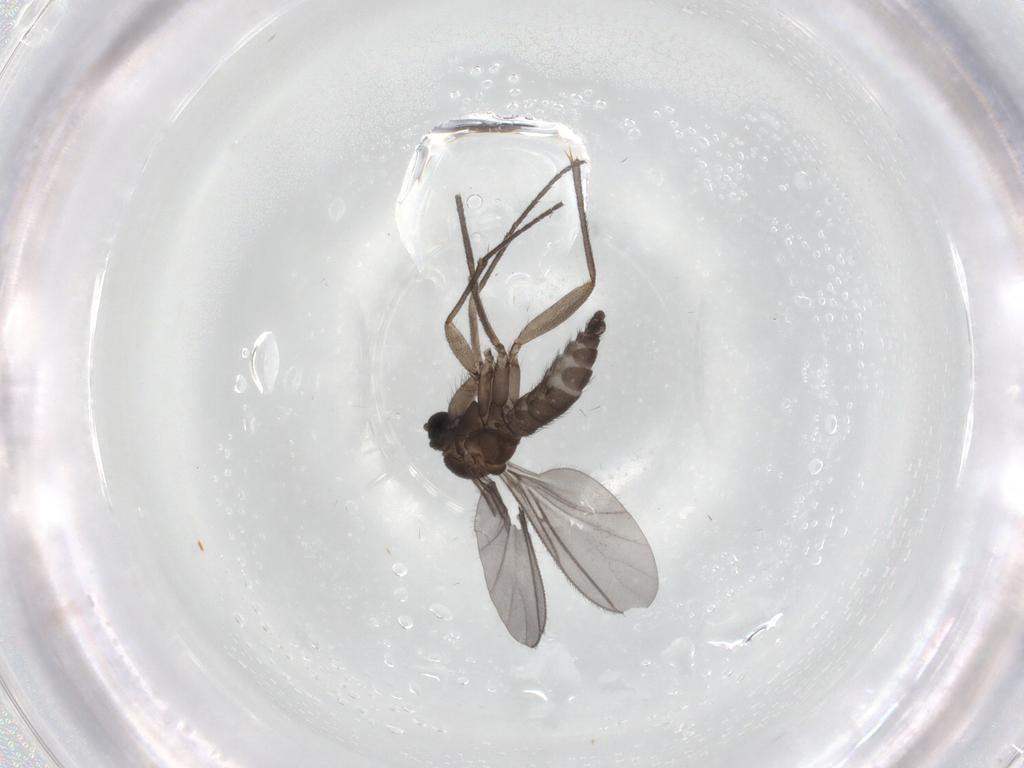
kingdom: Animalia
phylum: Arthropoda
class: Insecta
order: Diptera
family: Sciaridae
